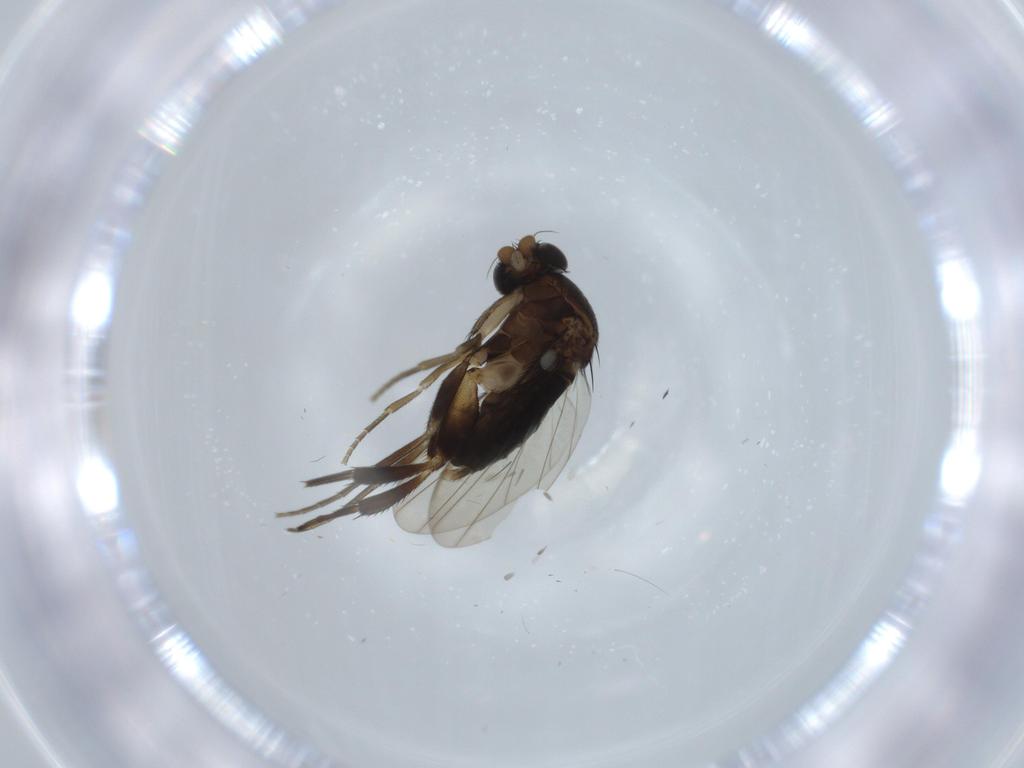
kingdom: Animalia
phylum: Arthropoda
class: Insecta
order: Diptera
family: Phoridae
